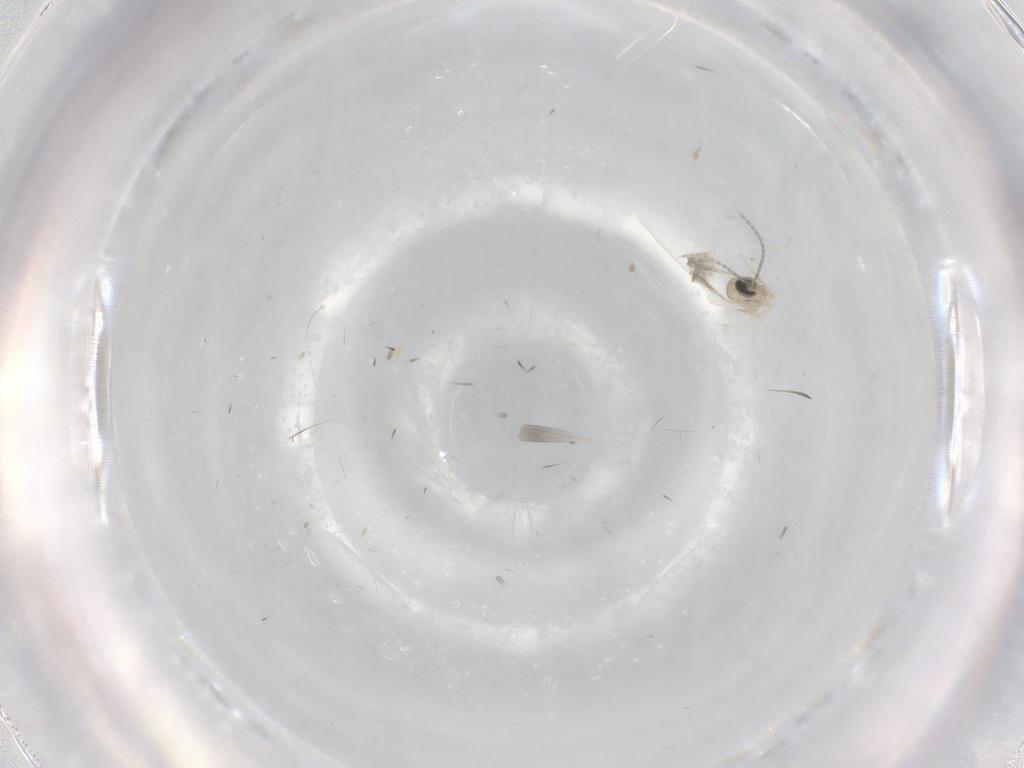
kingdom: Animalia
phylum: Arthropoda
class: Insecta
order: Diptera
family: Cecidomyiidae
